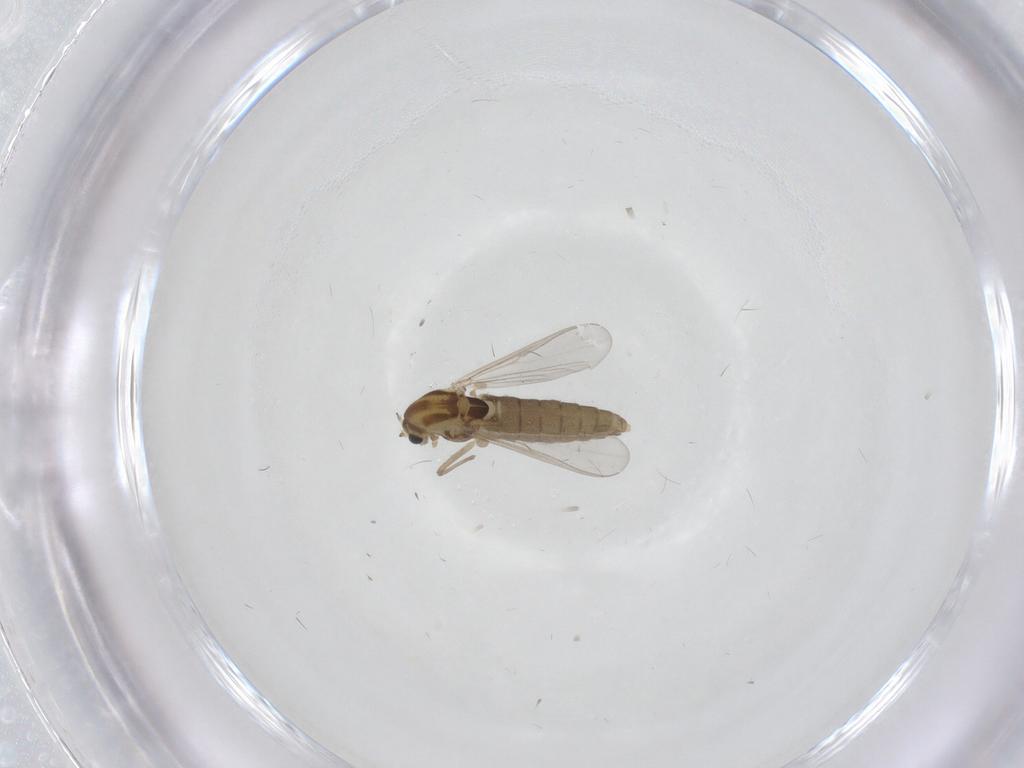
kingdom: Animalia
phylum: Arthropoda
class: Insecta
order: Diptera
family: Chironomidae
